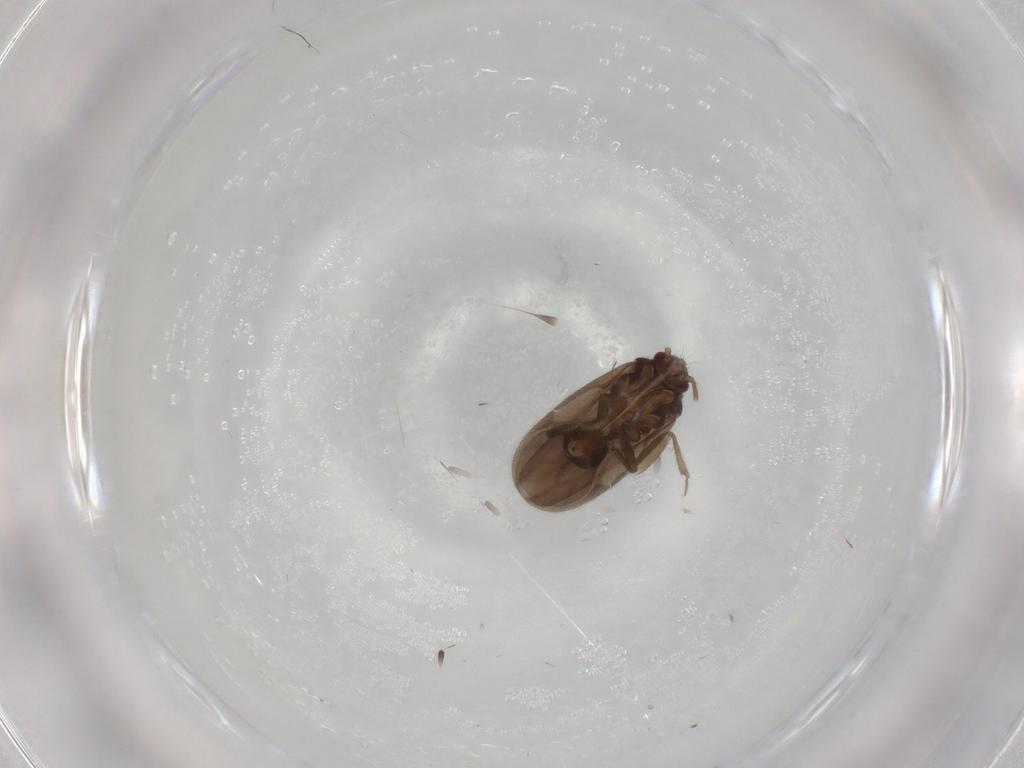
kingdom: Animalia
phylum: Arthropoda
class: Insecta
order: Hemiptera
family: Ceratocombidae
